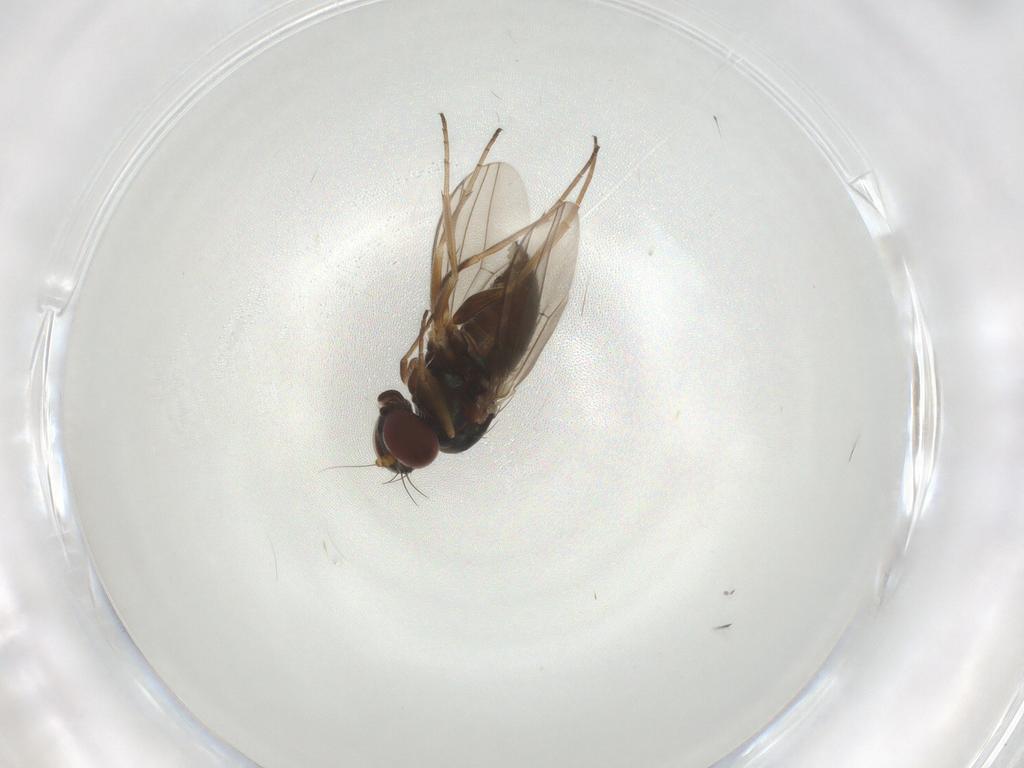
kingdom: Animalia
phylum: Arthropoda
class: Insecta
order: Diptera
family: Dolichopodidae
